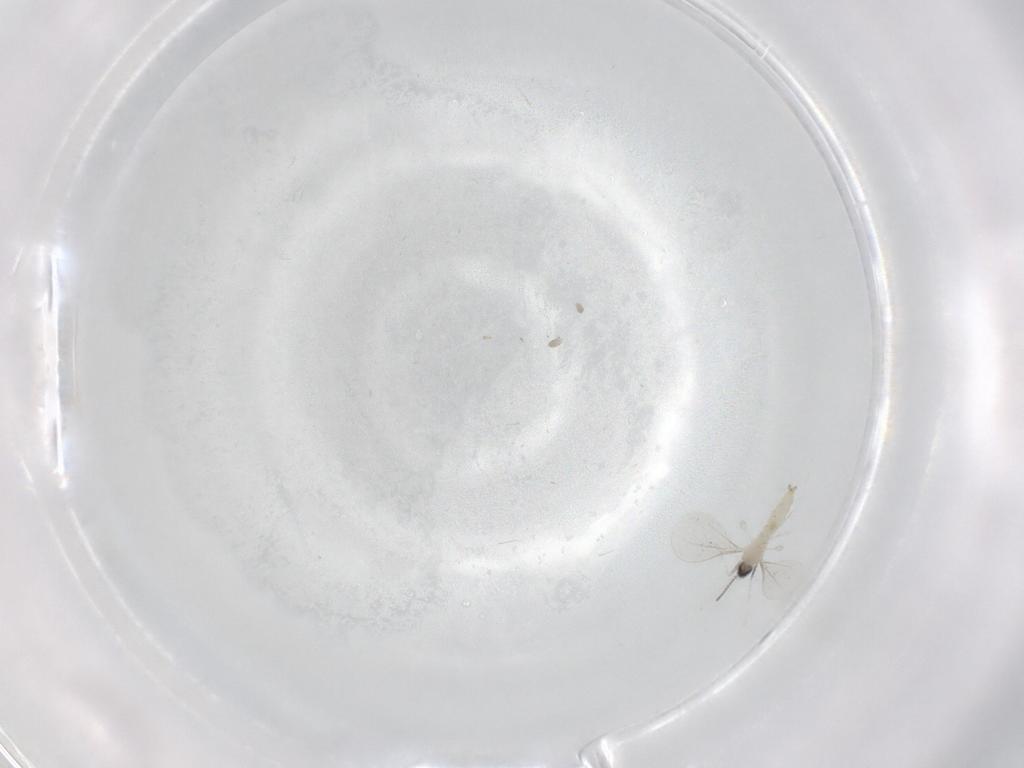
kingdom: Animalia
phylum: Arthropoda
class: Insecta
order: Diptera
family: Cecidomyiidae
